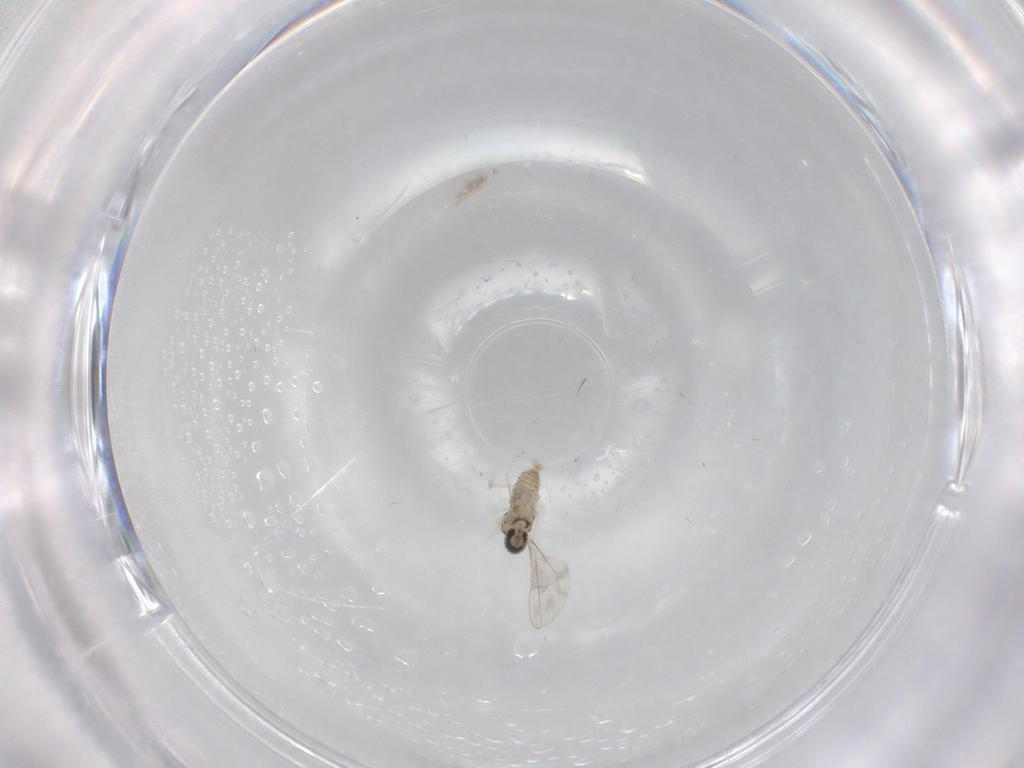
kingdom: Animalia
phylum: Arthropoda
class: Insecta
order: Diptera
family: Cecidomyiidae
